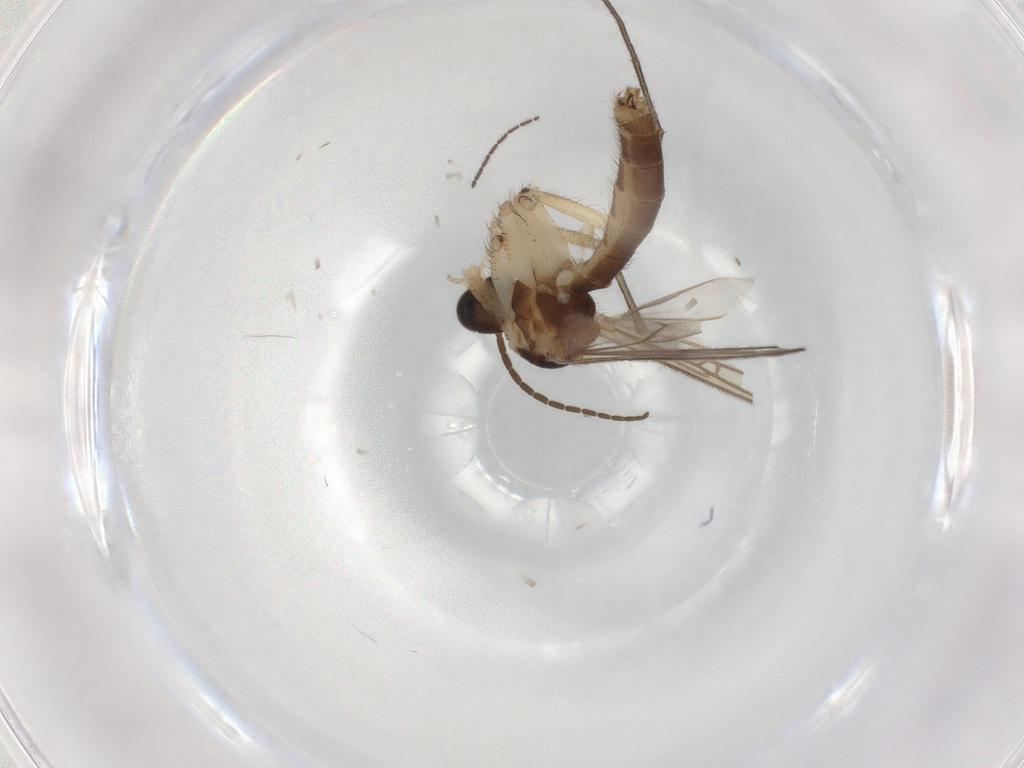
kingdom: Animalia
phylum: Arthropoda
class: Insecta
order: Diptera
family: Mycetophilidae
